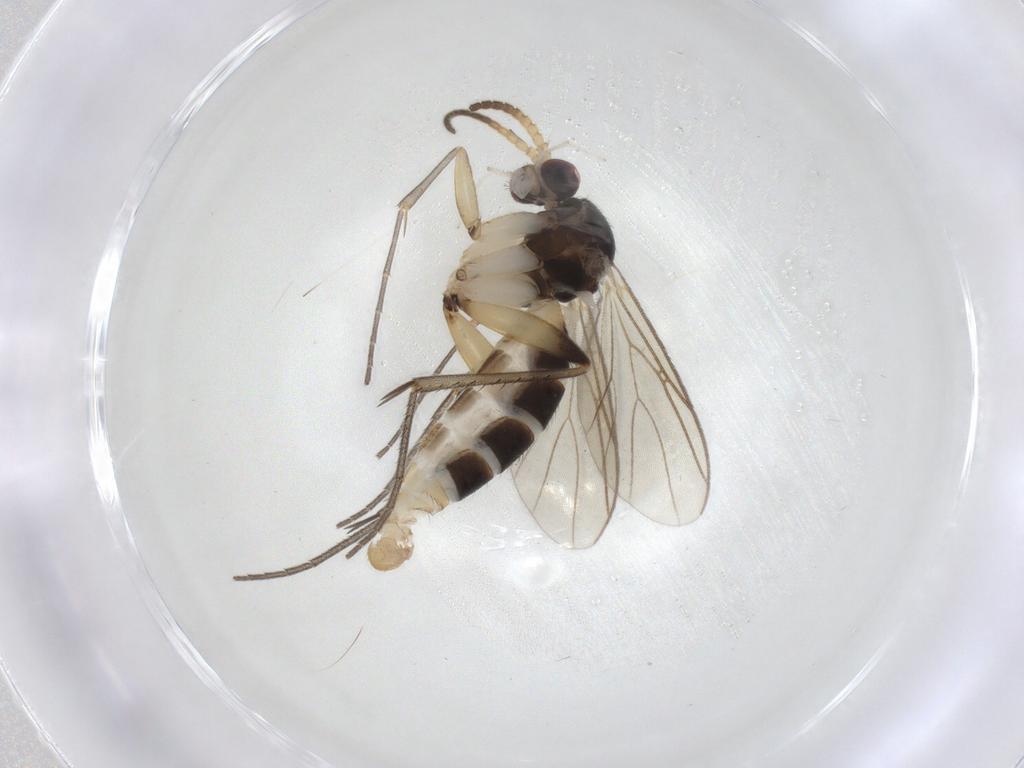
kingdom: Animalia
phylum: Arthropoda
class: Insecta
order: Diptera
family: Mycetophilidae
